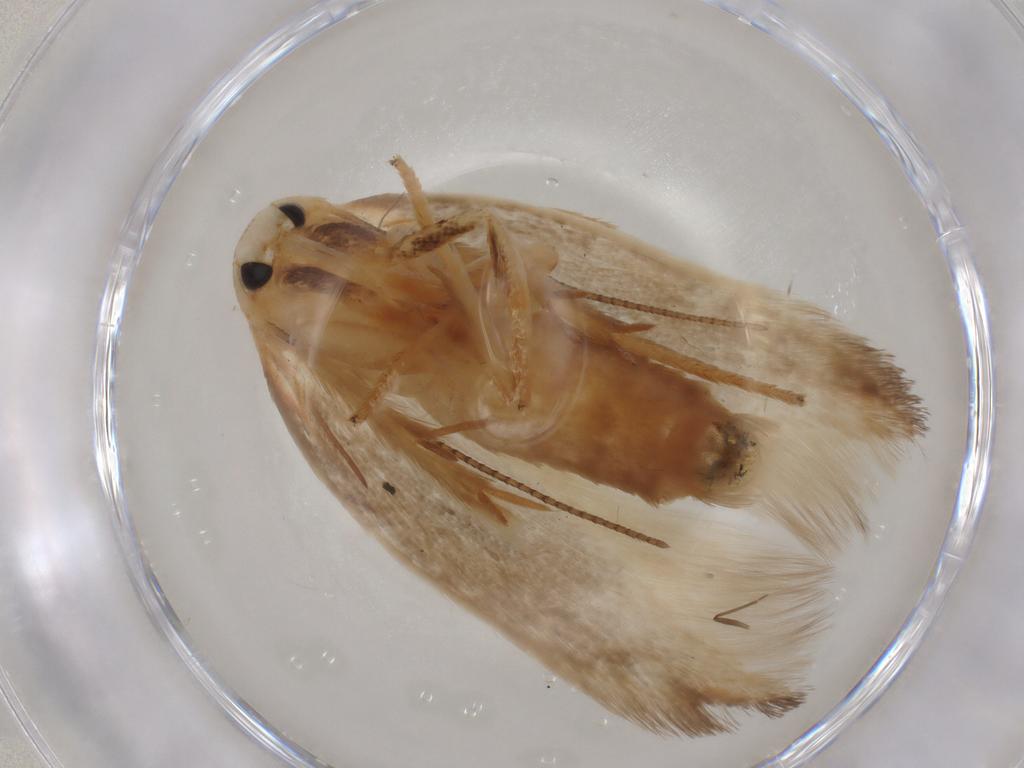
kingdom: Animalia
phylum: Arthropoda
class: Insecta
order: Lepidoptera
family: Geometridae
